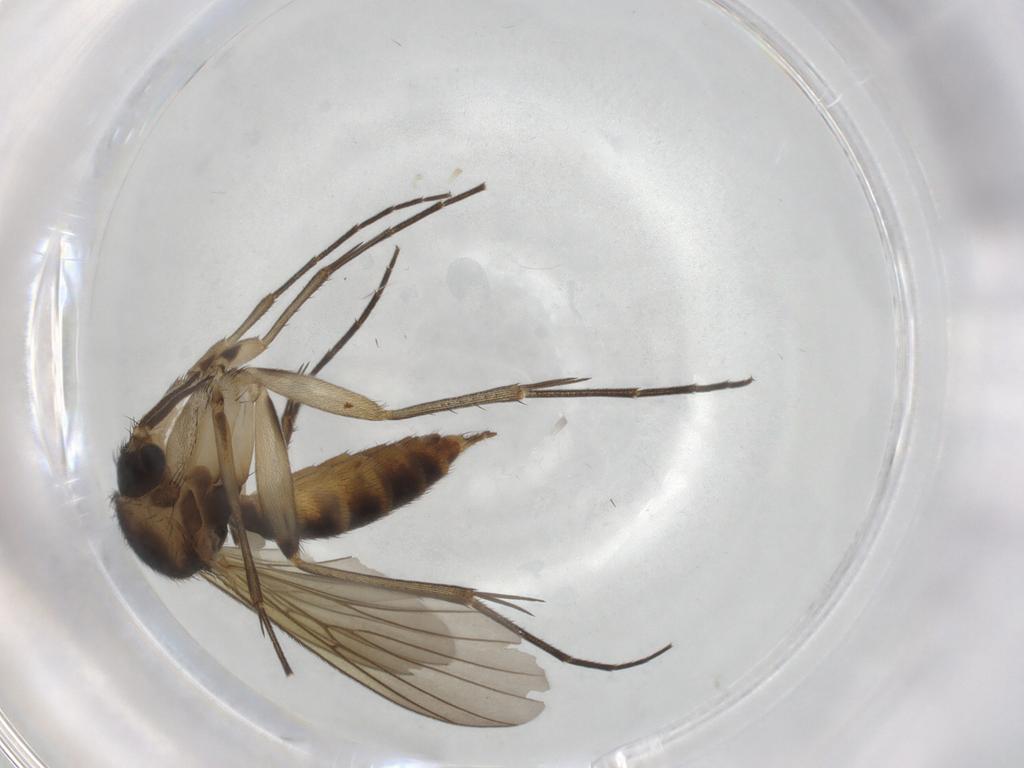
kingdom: Animalia
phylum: Arthropoda
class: Insecta
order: Diptera
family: Mycetophilidae
